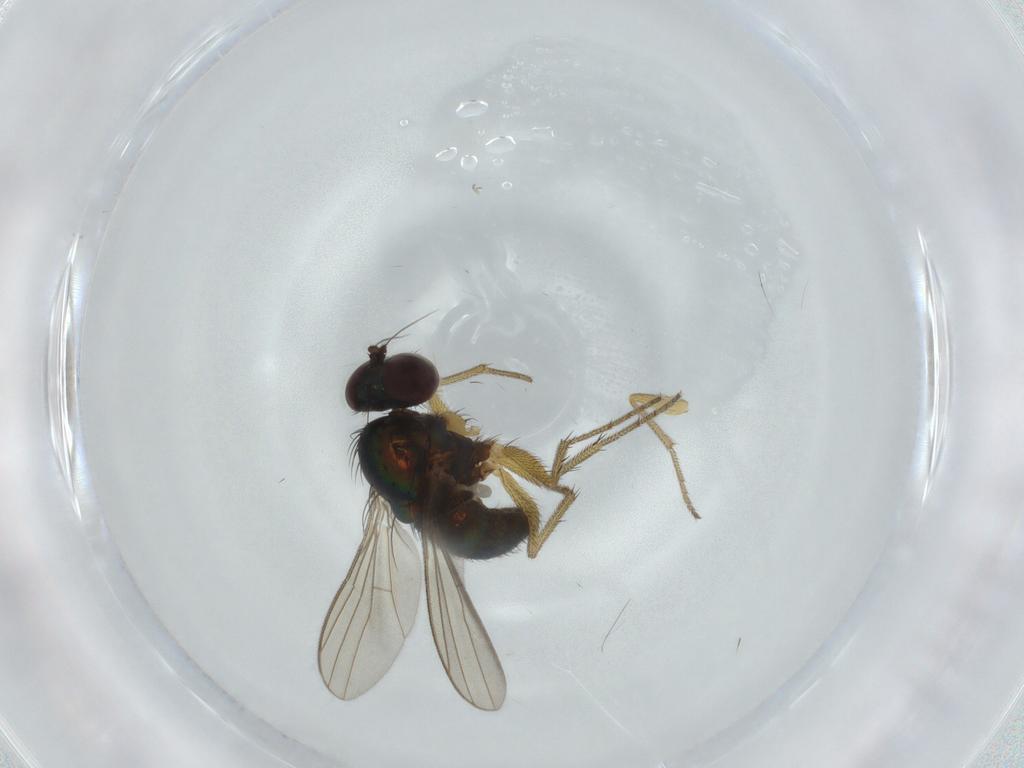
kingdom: Animalia
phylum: Arthropoda
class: Insecta
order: Diptera
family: Dolichopodidae
